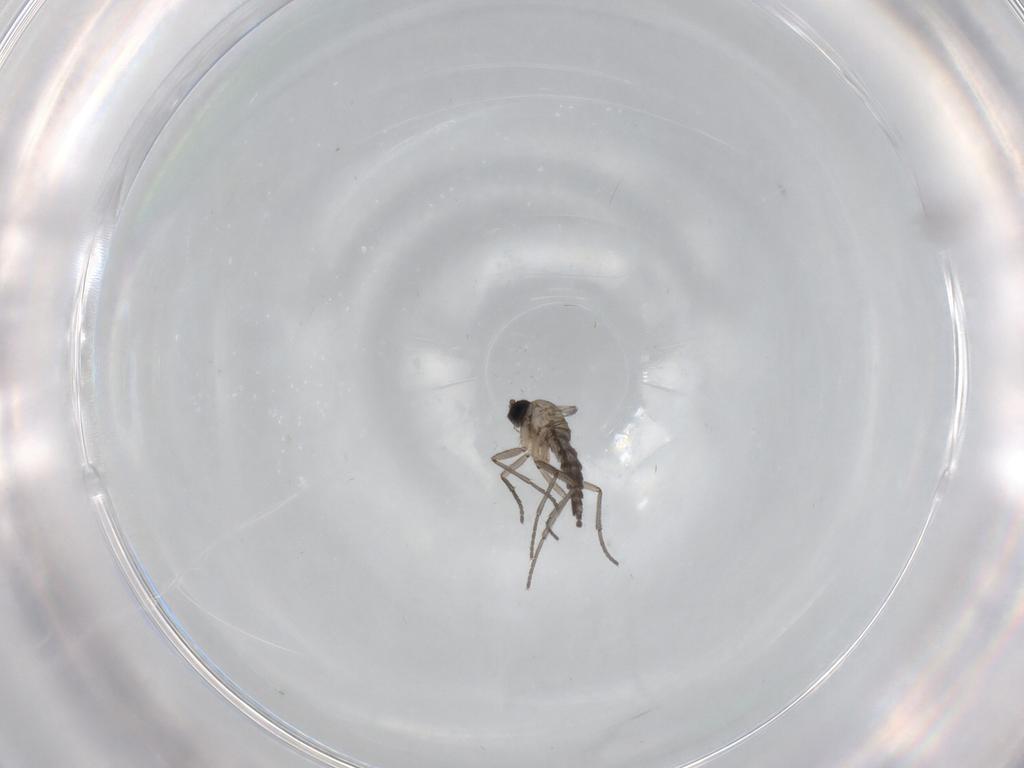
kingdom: Animalia
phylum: Arthropoda
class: Insecta
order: Diptera
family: Sciaridae
